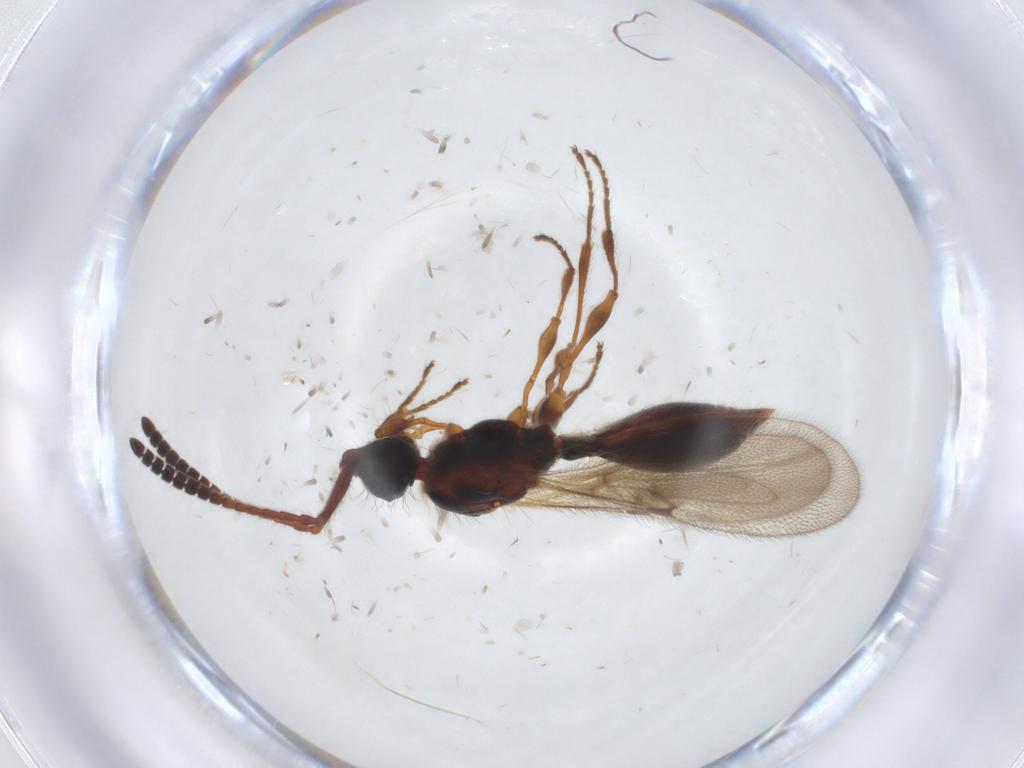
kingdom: Animalia
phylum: Arthropoda
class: Insecta
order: Hymenoptera
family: Diapriidae
